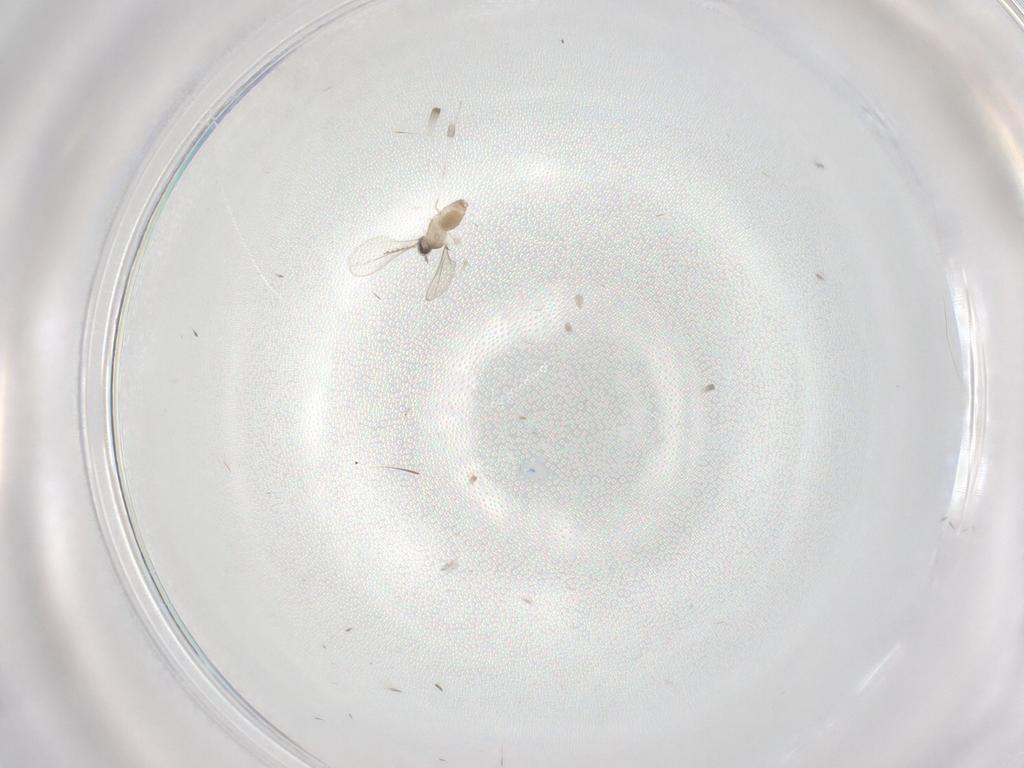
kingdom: Animalia
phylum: Arthropoda
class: Insecta
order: Diptera
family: Cecidomyiidae
